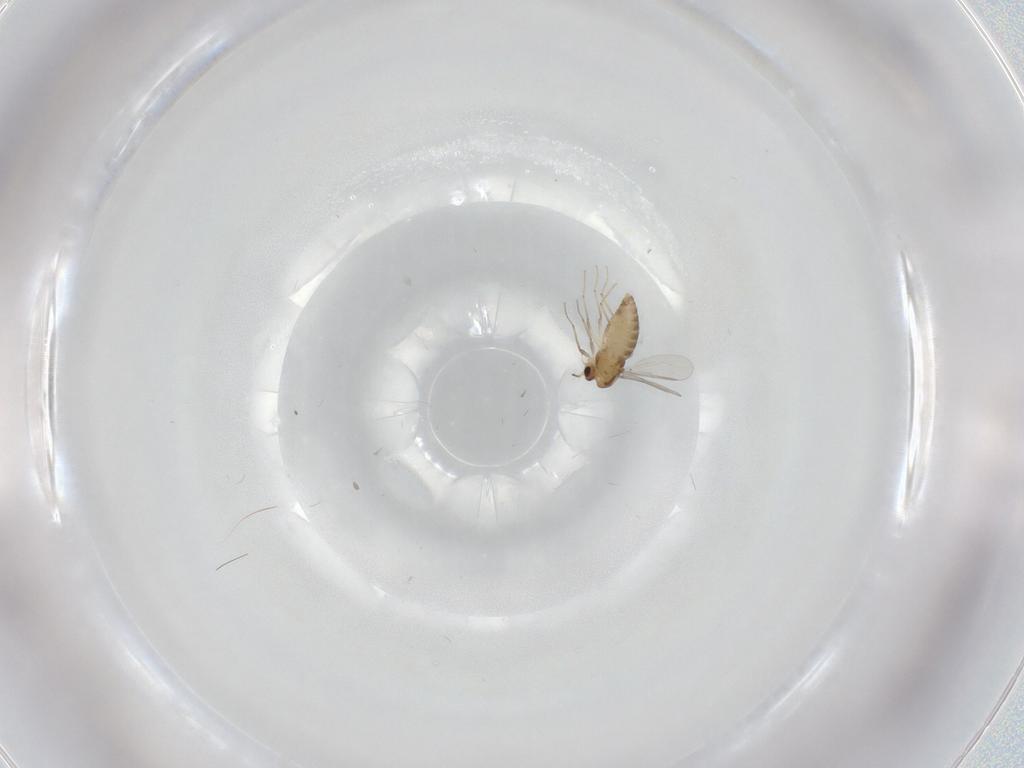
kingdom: Animalia
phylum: Arthropoda
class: Insecta
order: Diptera
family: Chironomidae
